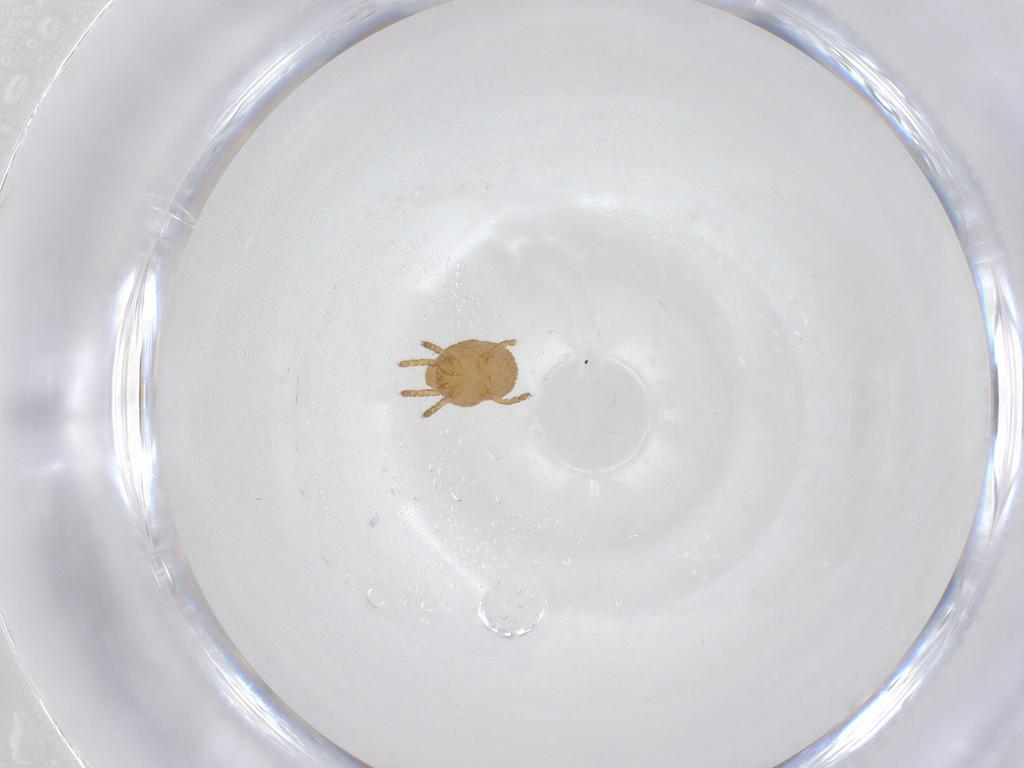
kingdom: Animalia
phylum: Arthropoda
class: Arachnida
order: Trombidiformes
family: Calyptostomatidae
